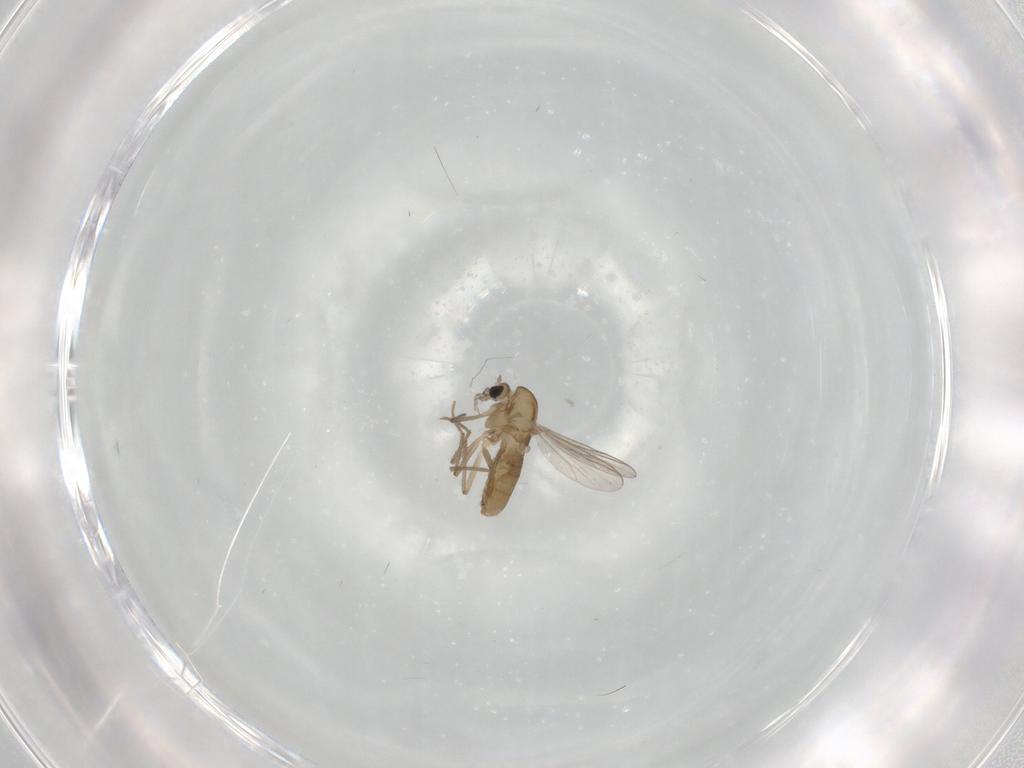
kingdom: Animalia
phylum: Arthropoda
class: Insecta
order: Diptera
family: Chironomidae
